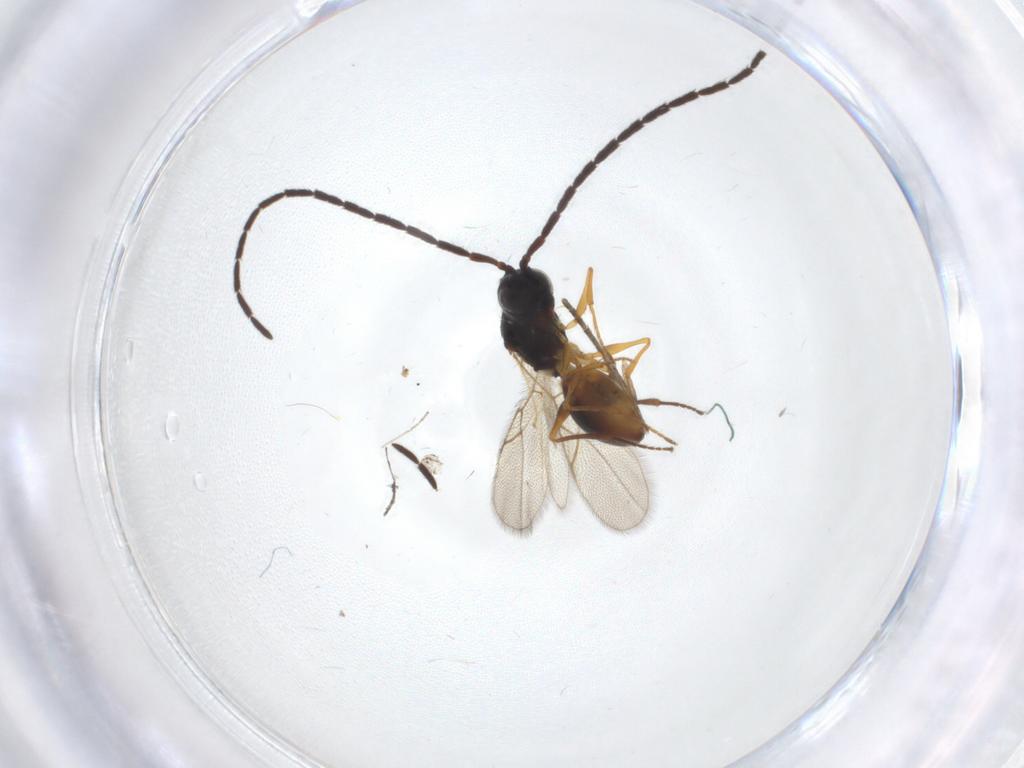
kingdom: Animalia
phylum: Arthropoda
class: Insecta
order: Hymenoptera
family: Figitidae
